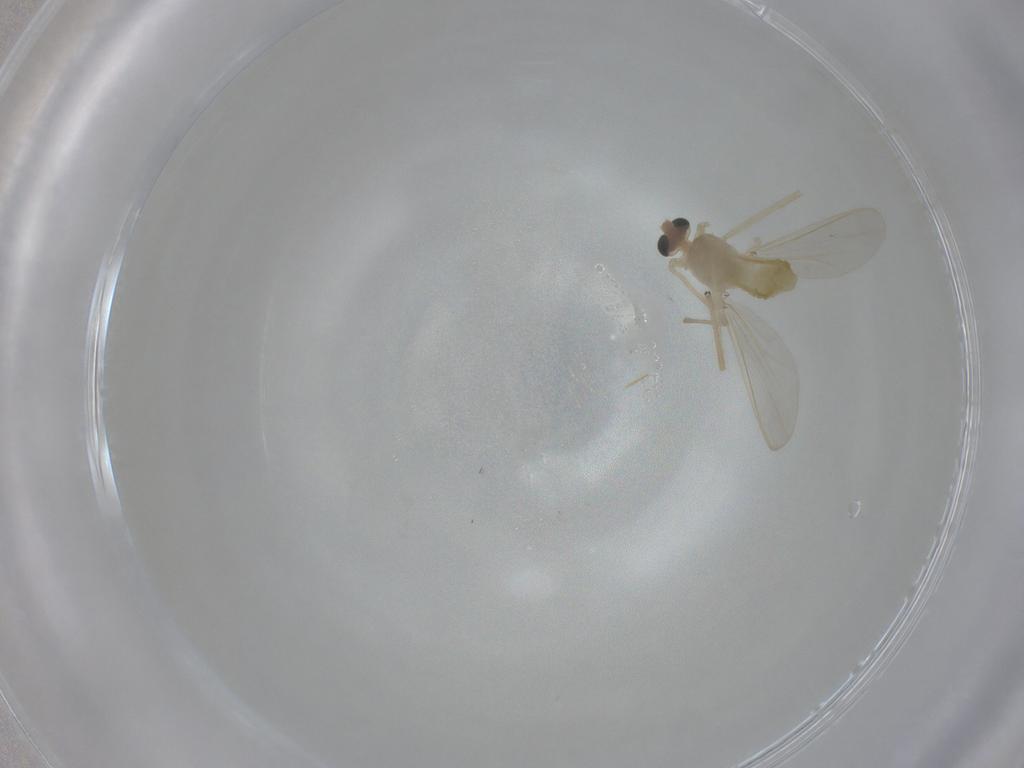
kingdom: Animalia
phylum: Arthropoda
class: Insecta
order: Diptera
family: Chironomidae
